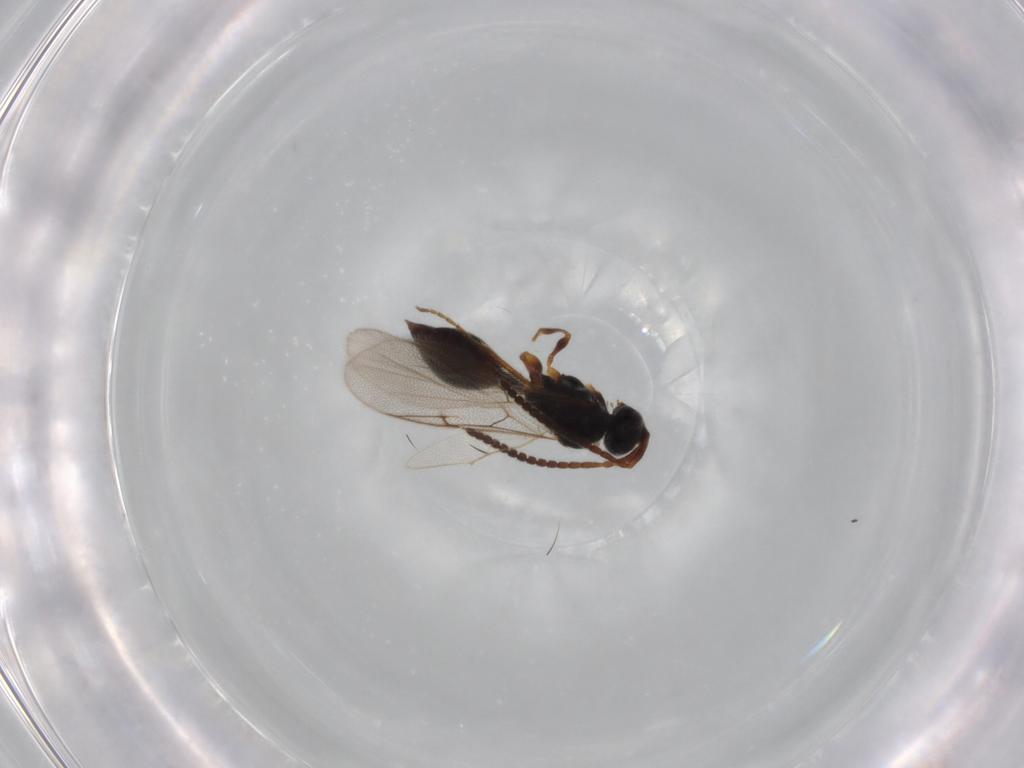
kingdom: Animalia
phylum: Arthropoda
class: Insecta
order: Hymenoptera
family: Diapriidae
